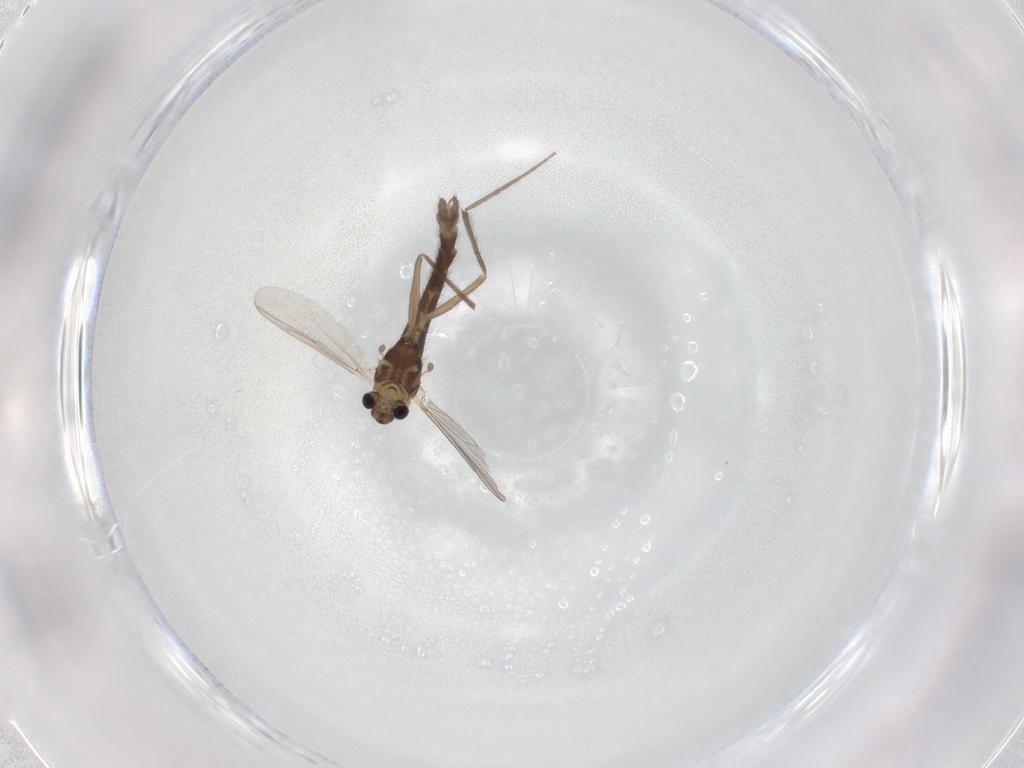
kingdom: Animalia
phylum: Arthropoda
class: Insecta
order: Diptera
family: Chironomidae
